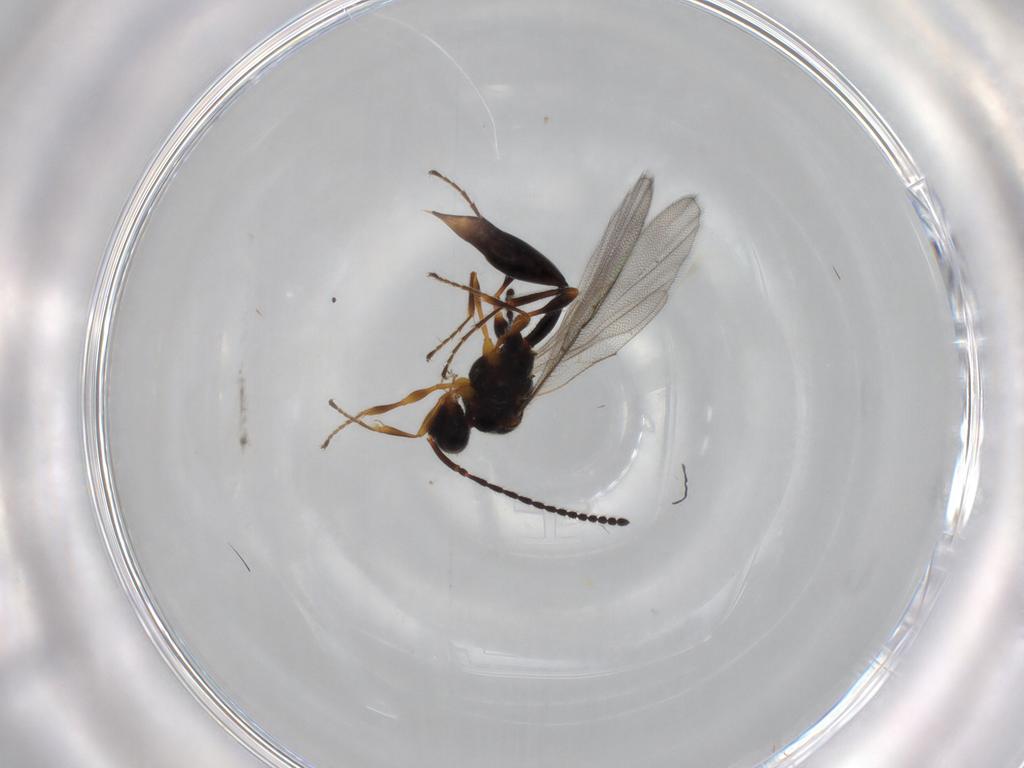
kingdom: Animalia
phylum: Arthropoda
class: Insecta
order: Hymenoptera
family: Diapriidae
